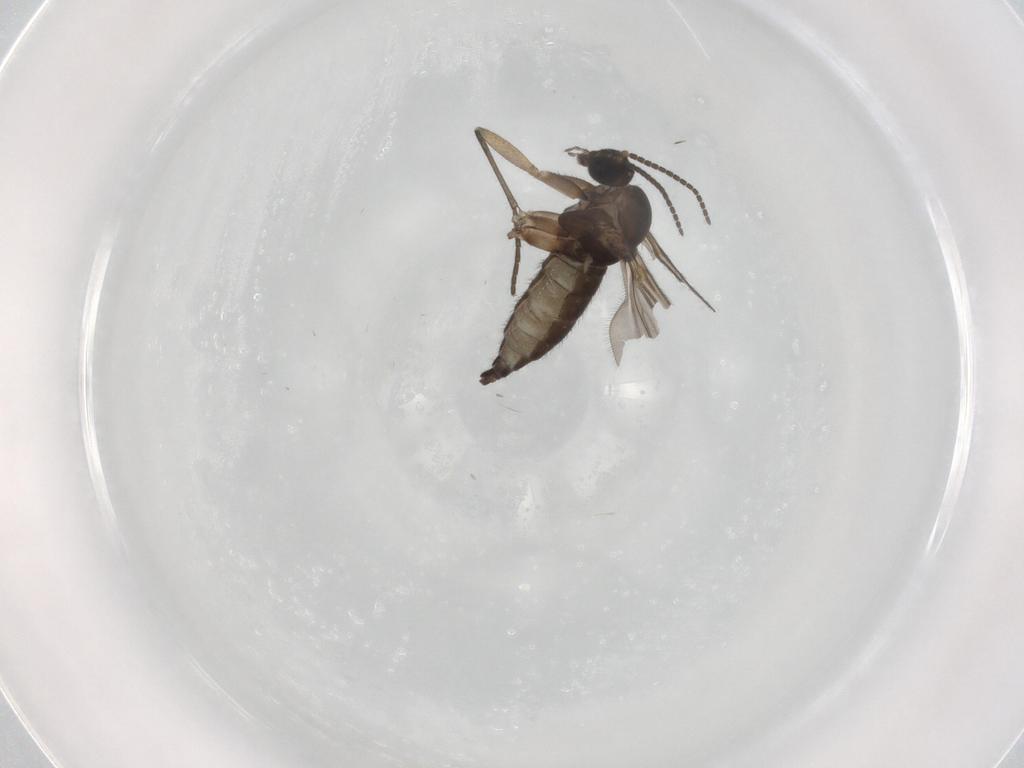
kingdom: Animalia
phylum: Arthropoda
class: Insecta
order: Diptera
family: Sciaridae
